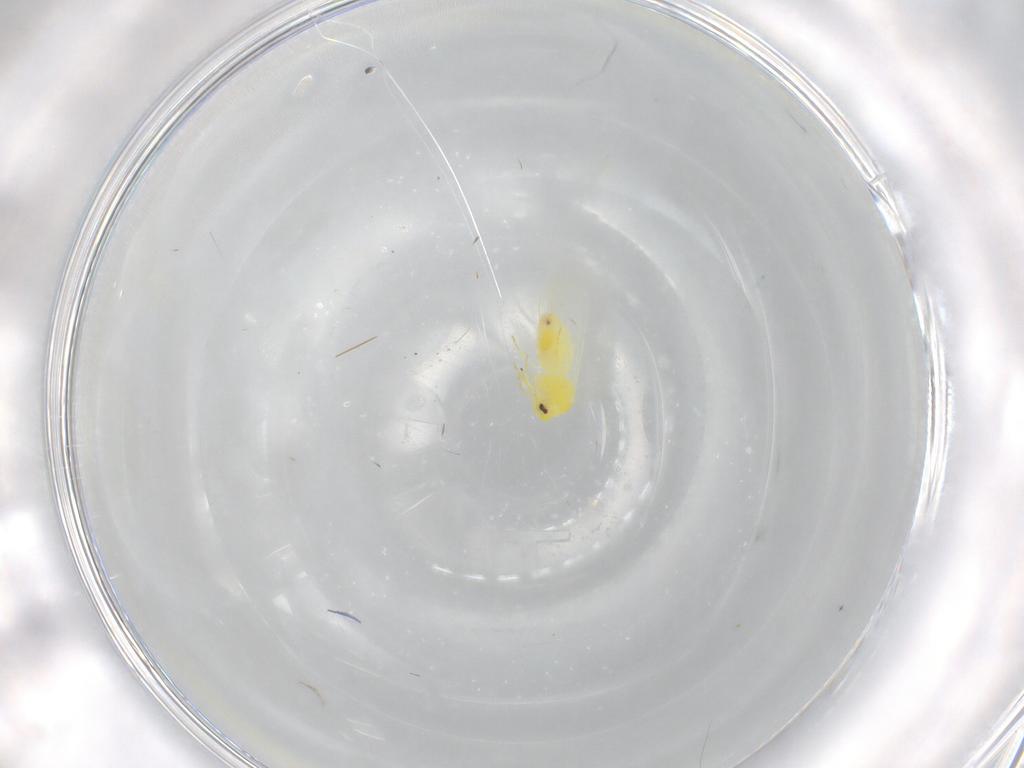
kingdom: Animalia
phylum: Arthropoda
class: Insecta
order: Hemiptera
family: Aleyrodidae
